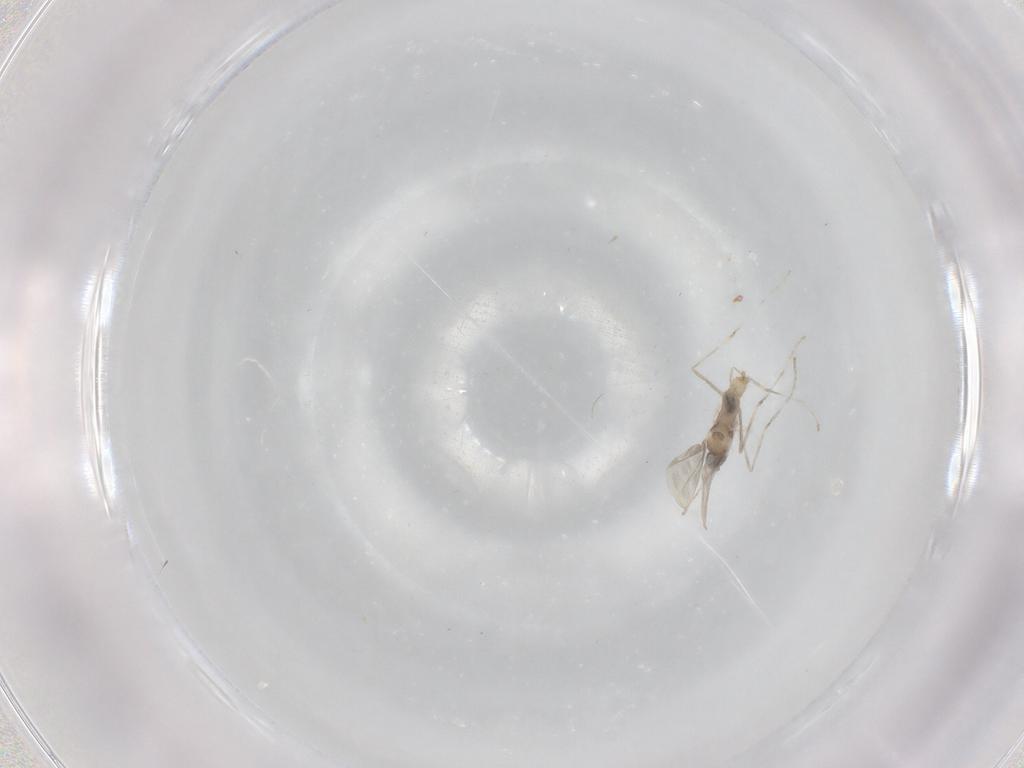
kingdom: Animalia
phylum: Arthropoda
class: Insecta
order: Diptera
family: Cecidomyiidae
